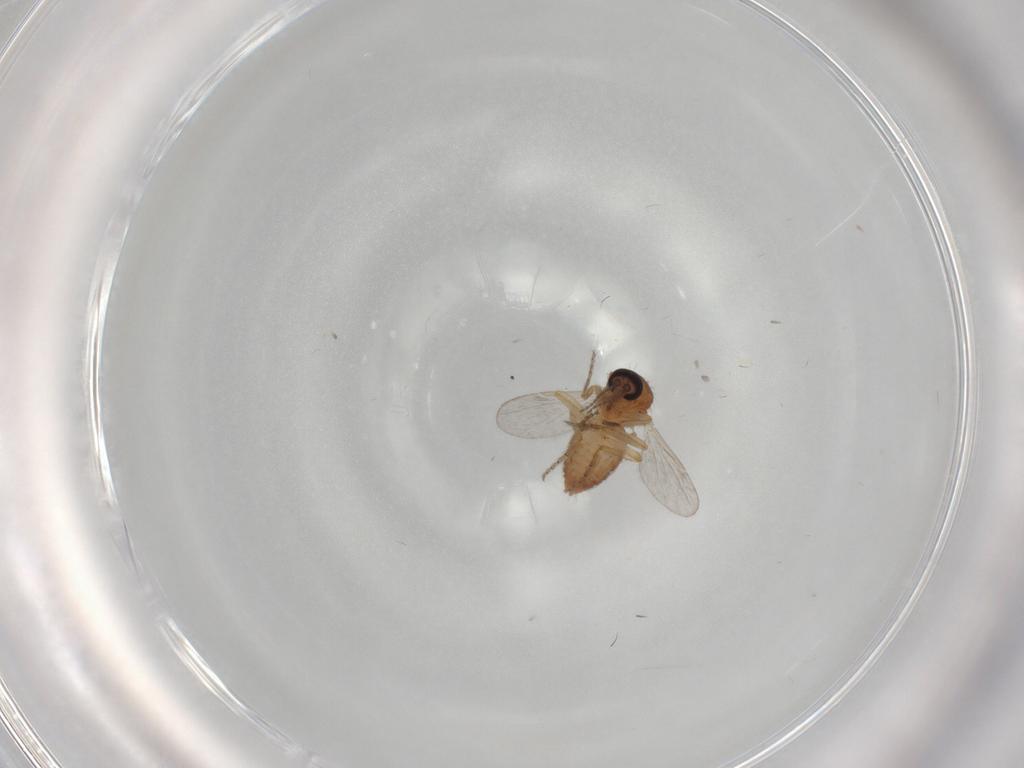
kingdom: Animalia
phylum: Arthropoda
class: Insecta
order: Diptera
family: Ceratopogonidae
